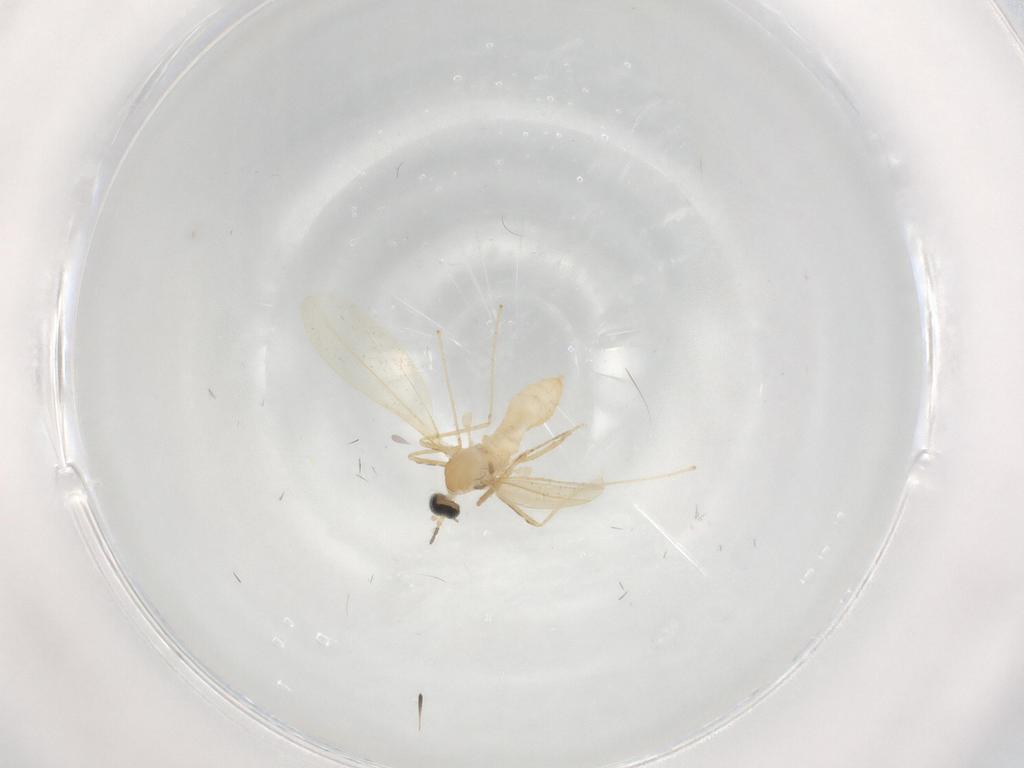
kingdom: Animalia
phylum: Arthropoda
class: Insecta
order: Diptera
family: Cecidomyiidae
